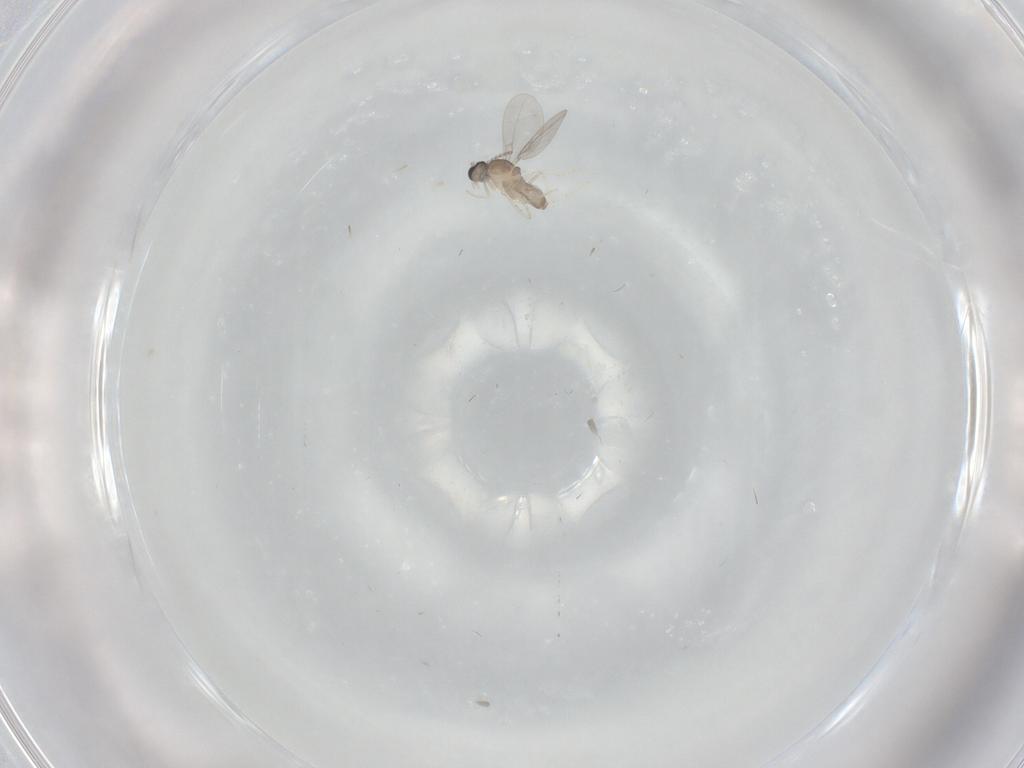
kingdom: Animalia
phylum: Arthropoda
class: Insecta
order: Diptera
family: Cecidomyiidae
